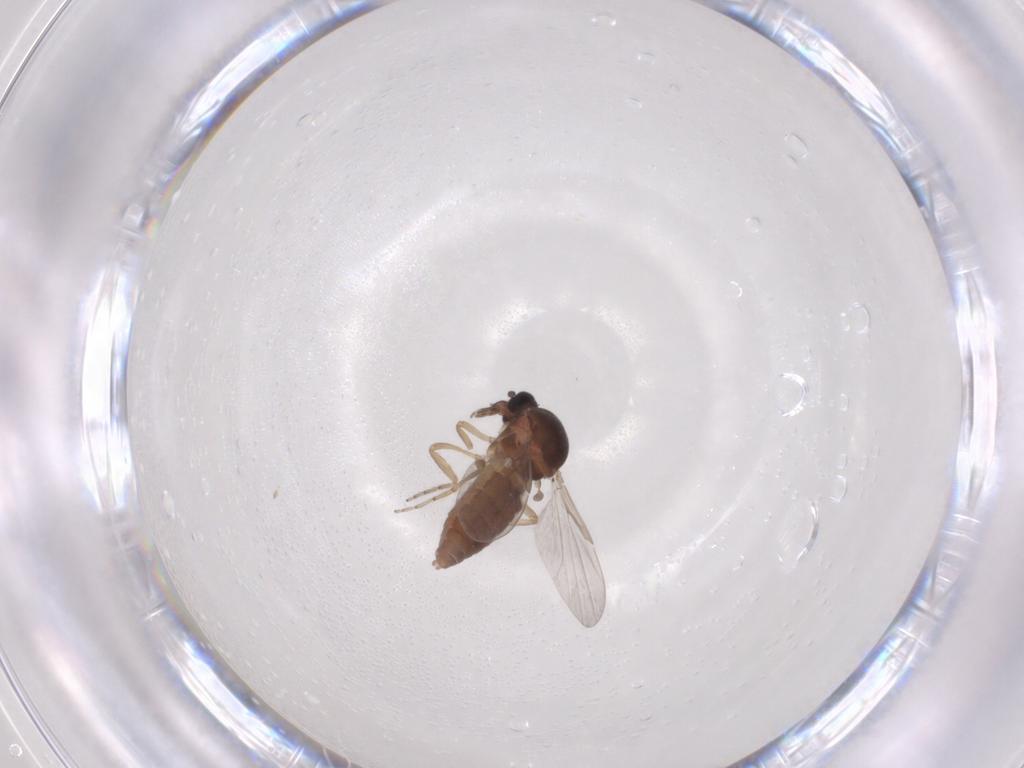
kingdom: Animalia
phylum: Arthropoda
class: Insecta
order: Diptera
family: Ceratopogonidae
